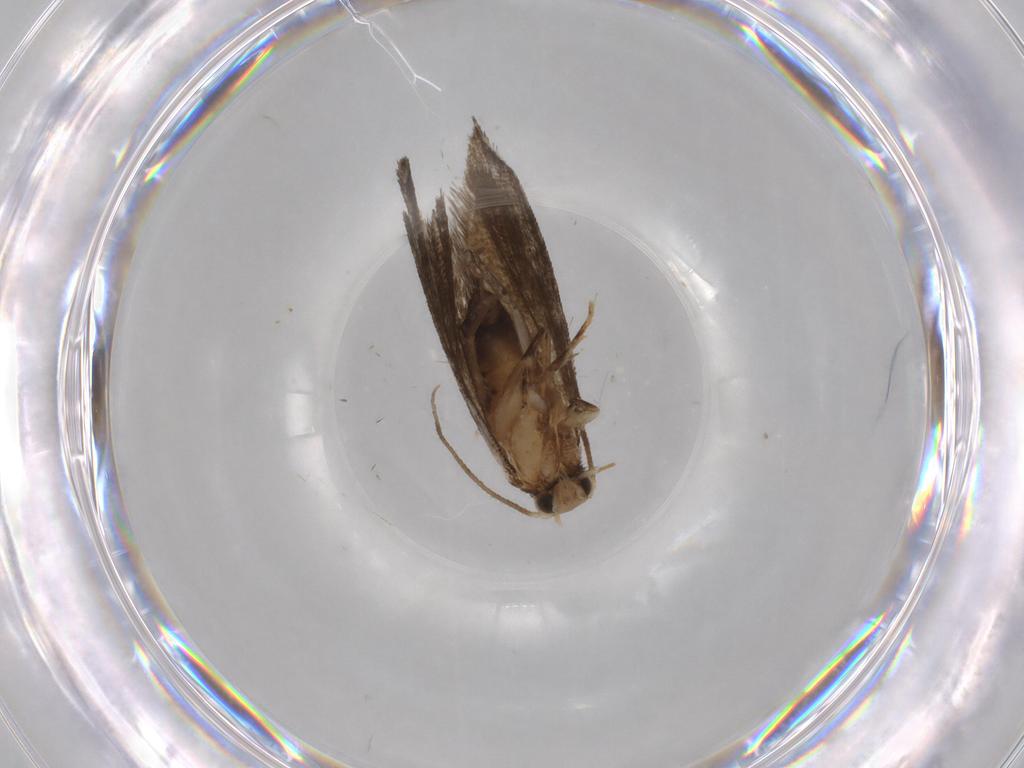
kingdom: Animalia
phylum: Arthropoda
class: Insecta
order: Lepidoptera
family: Tineidae
